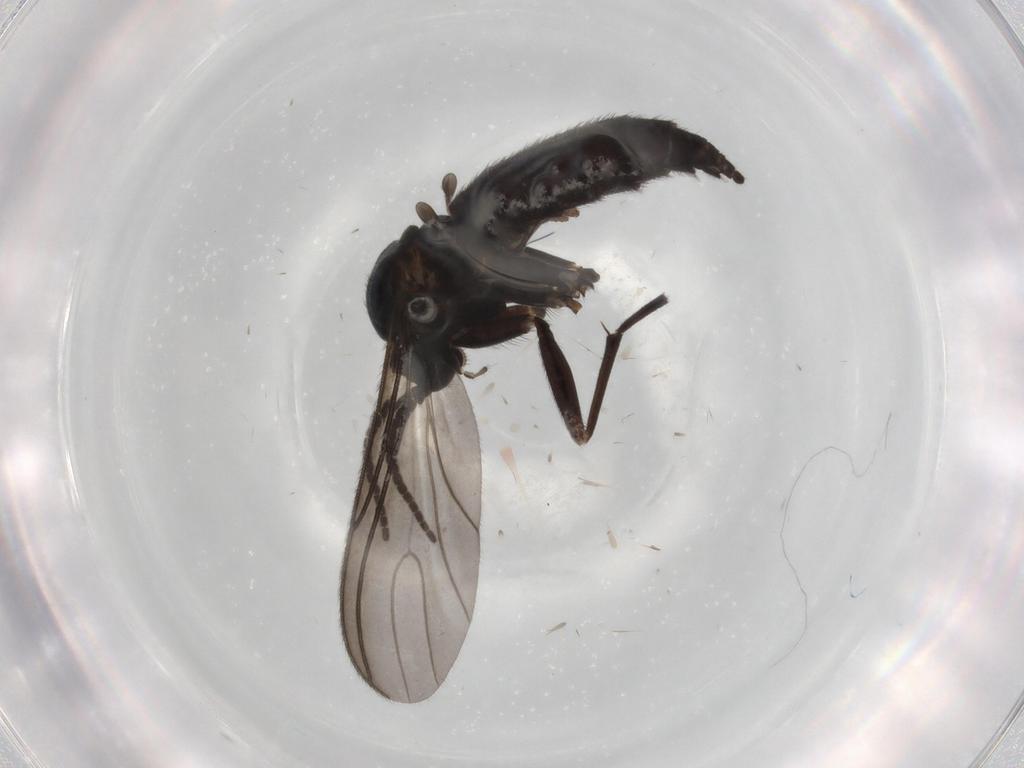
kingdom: Animalia
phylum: Arthropoda
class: Insecta
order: Diptera
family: Sciaridae
